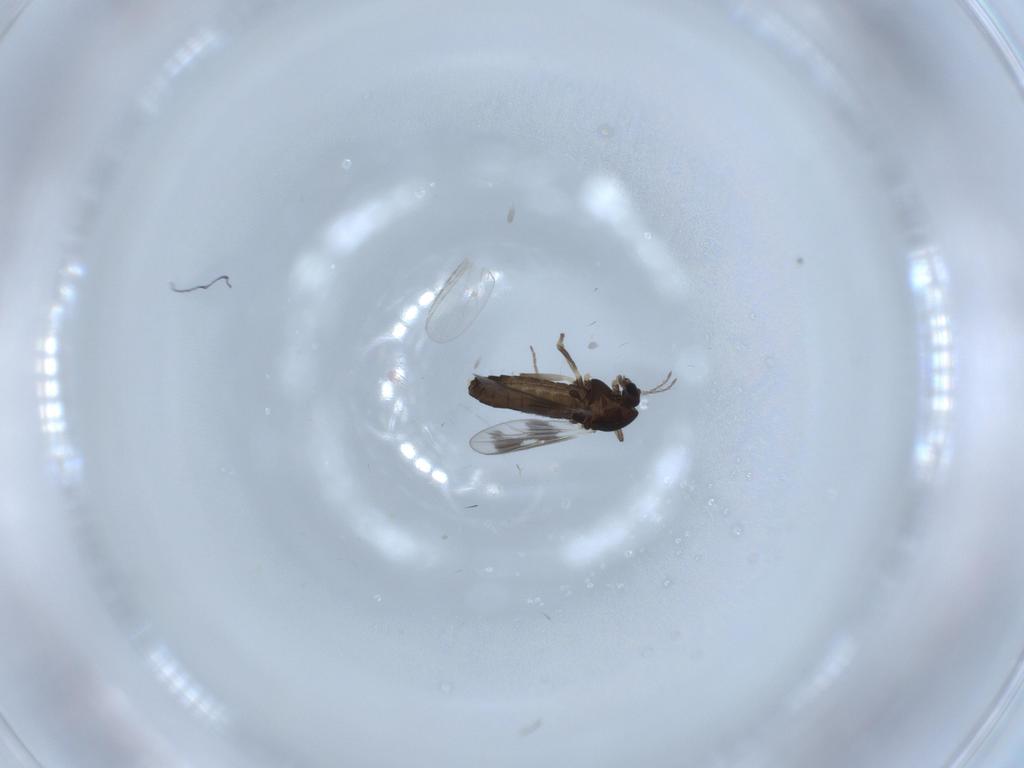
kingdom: Animalia
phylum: Arthropoda
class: Insecta
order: Diptera
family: Chironomidae
